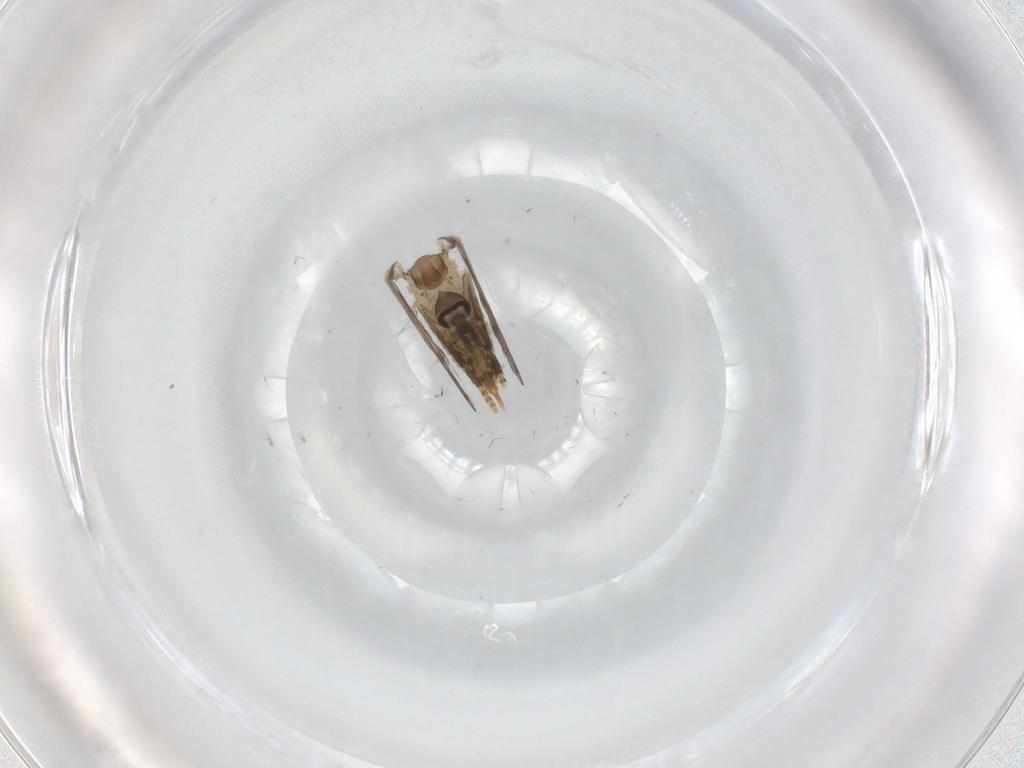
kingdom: Animalia
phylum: Arthropoda
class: Insecta
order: Diptera
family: Psychodidae
